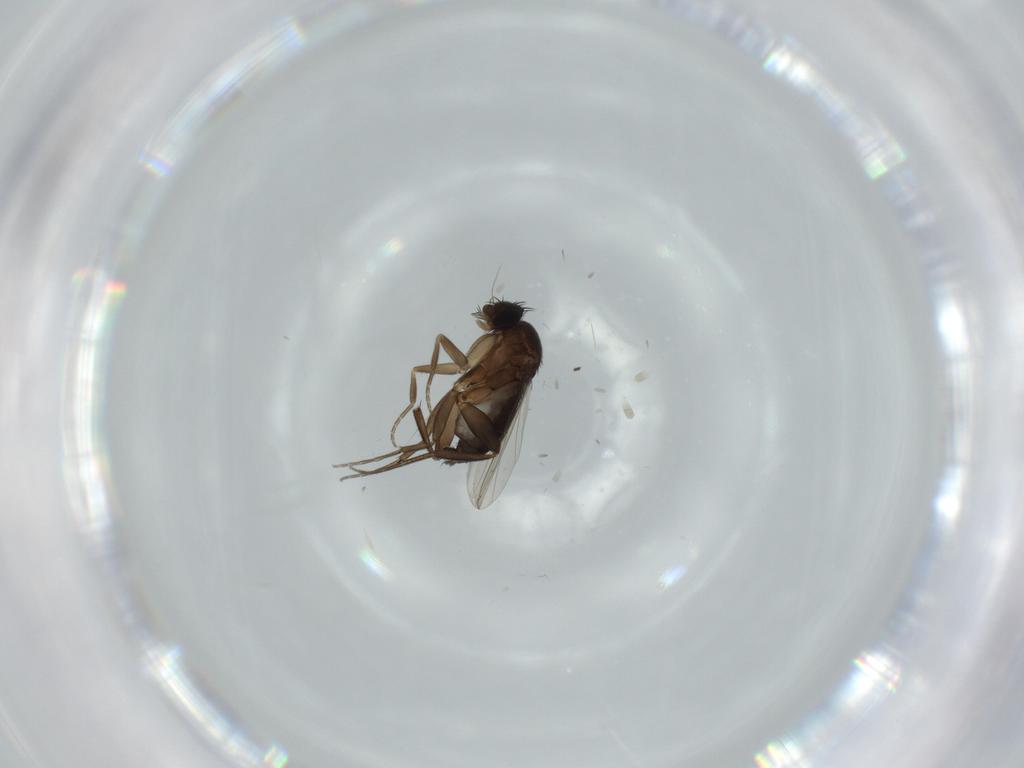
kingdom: Animalia
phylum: Arthropoda
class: Insecta
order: Diptera
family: Phoridae
